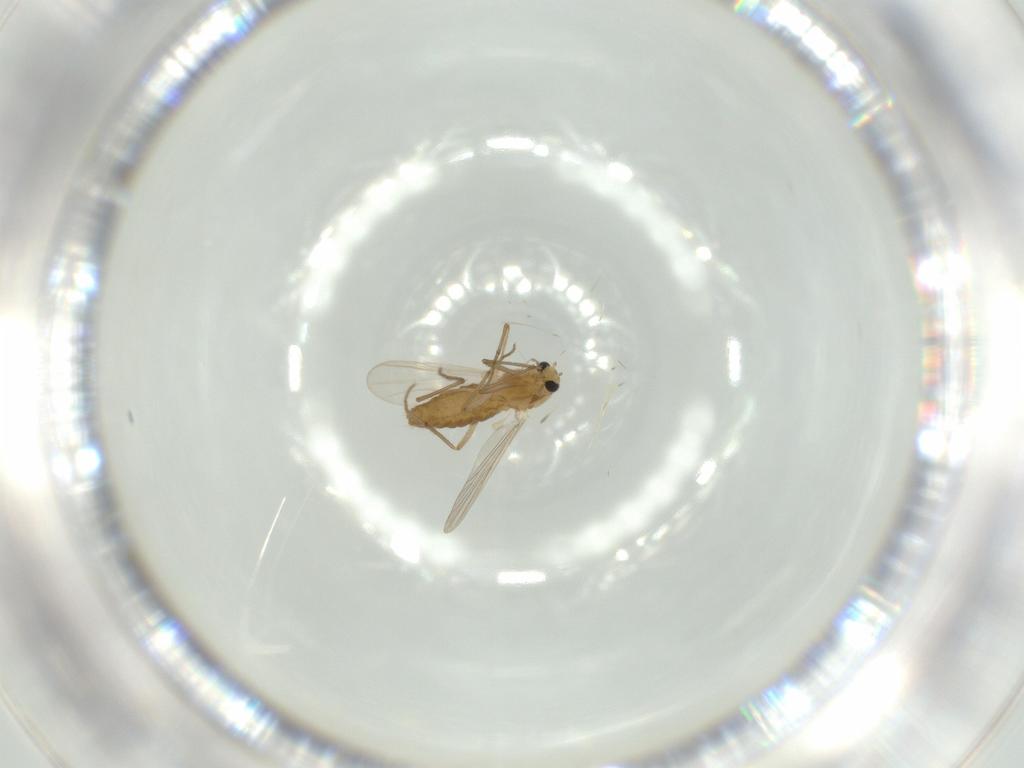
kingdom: Animalia
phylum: Arthropoda
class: Insecta
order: Diptera
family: Chironomidae
